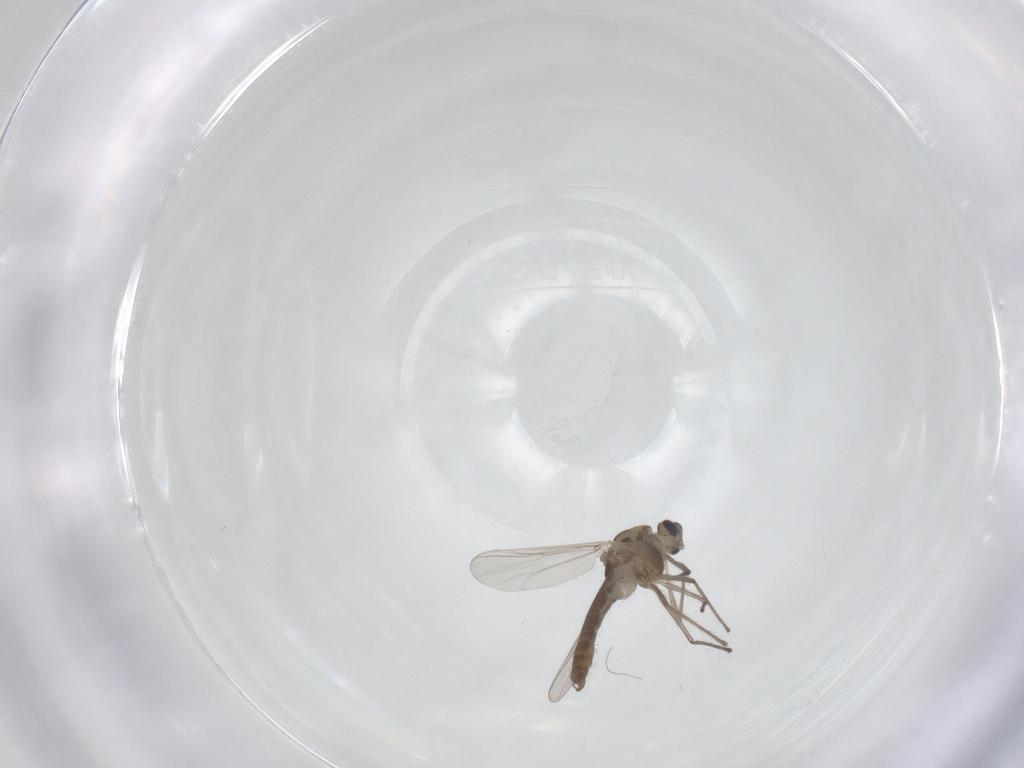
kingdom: Animalia
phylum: Arthropoda
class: Insecta
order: Diptera
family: Chironomidae
